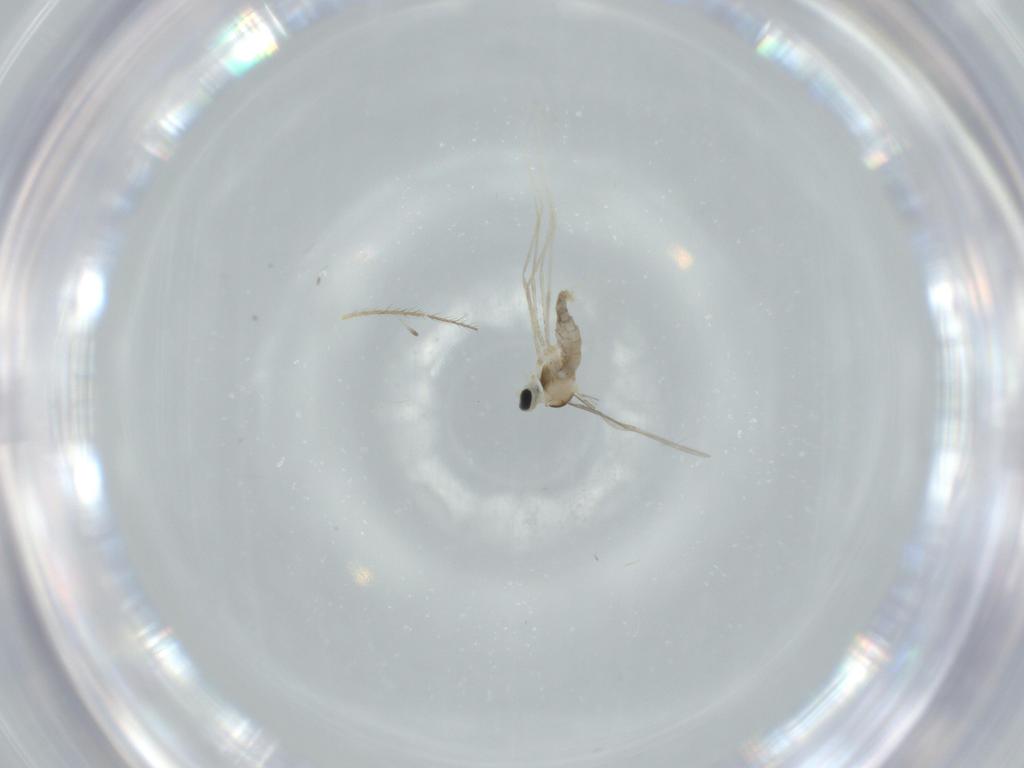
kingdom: Animalia
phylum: Arthropoda
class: Insecta
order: Diptera
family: Cecidomyiidae
